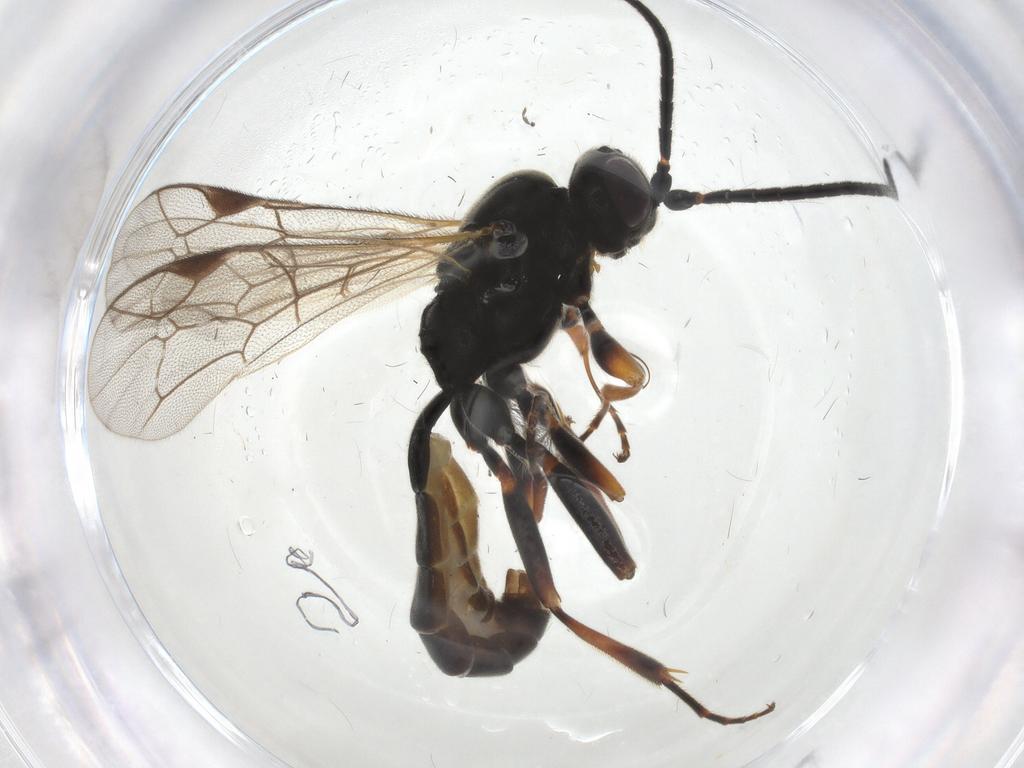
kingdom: Animalia
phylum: Arthropoda
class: Insecta
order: Hymenoptera
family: Ichneumonidae
